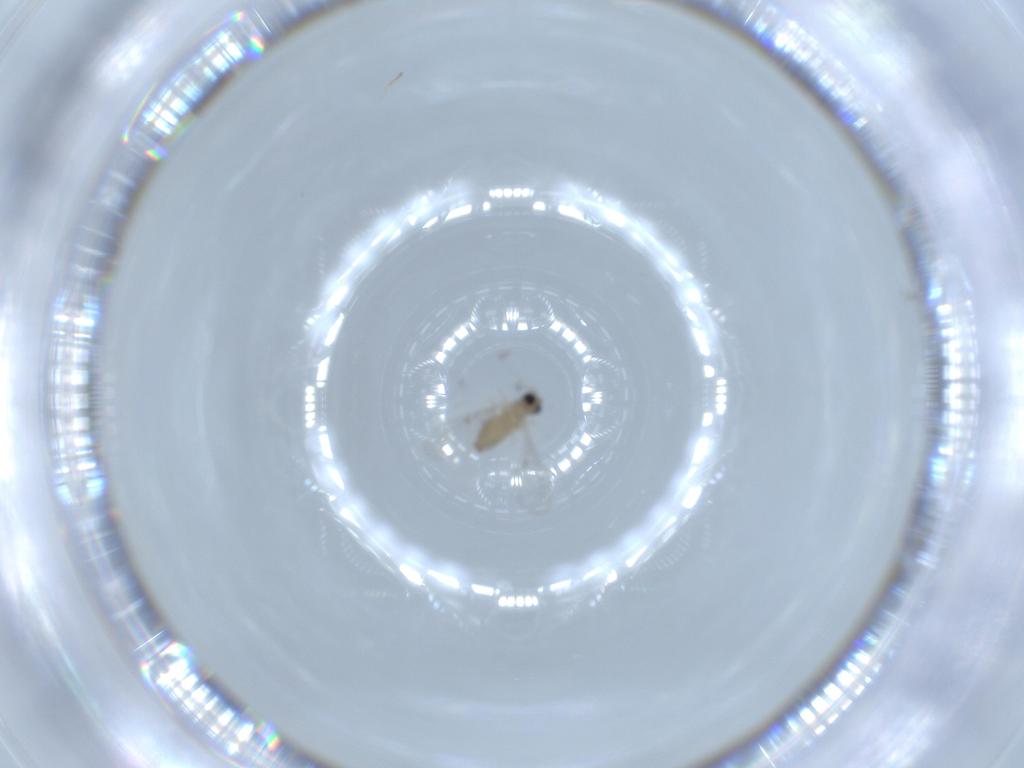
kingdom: Animalia
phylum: Arthropoda
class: Insecta
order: Diptera
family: Cecidomyiidae
